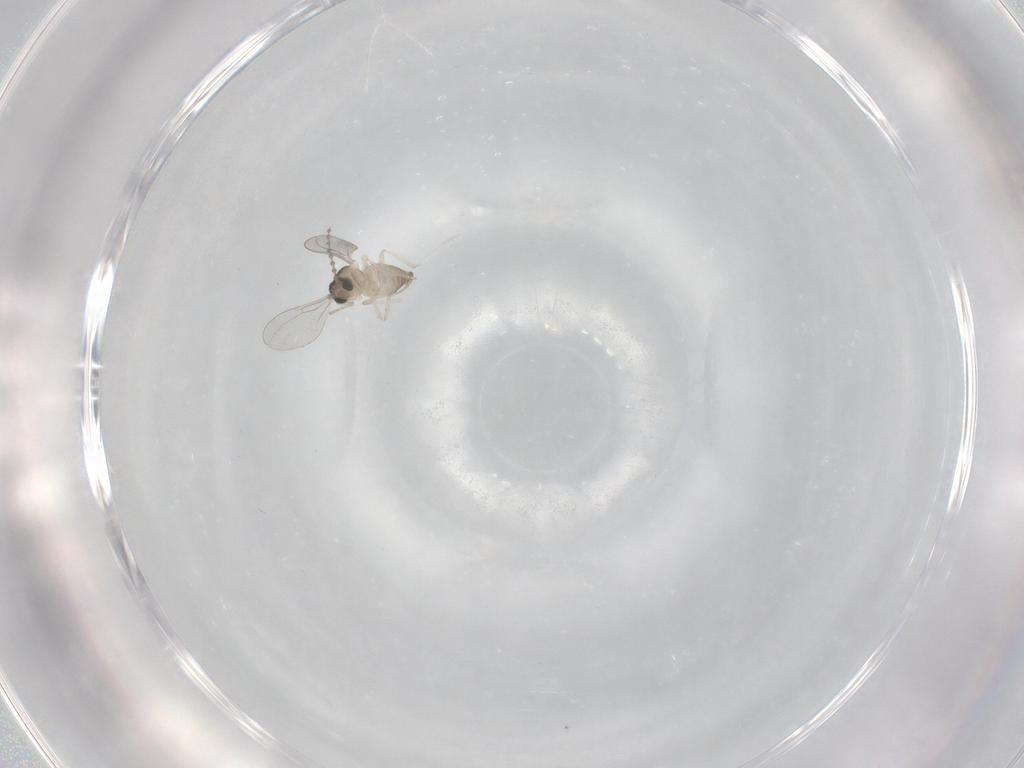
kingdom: Animalia
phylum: Arthropoda
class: Insecta
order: Diptera
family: Cecidomyiidae
